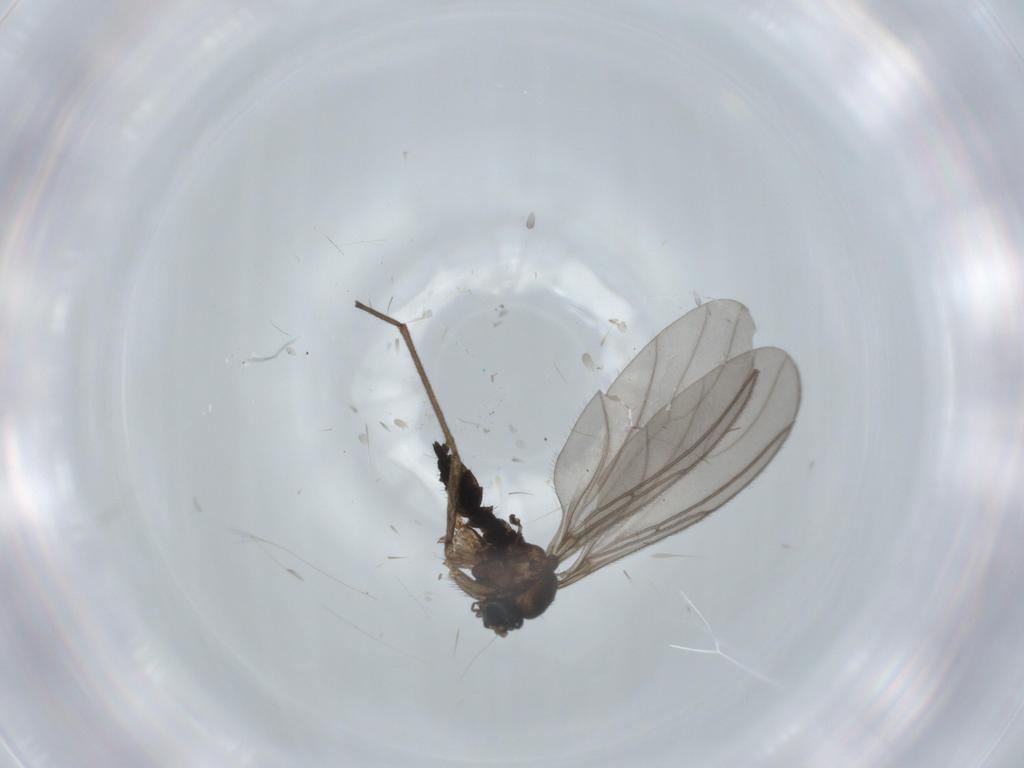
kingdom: Animalia
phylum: Arthropoda
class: Insecta
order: Diptera
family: Sciaridae
